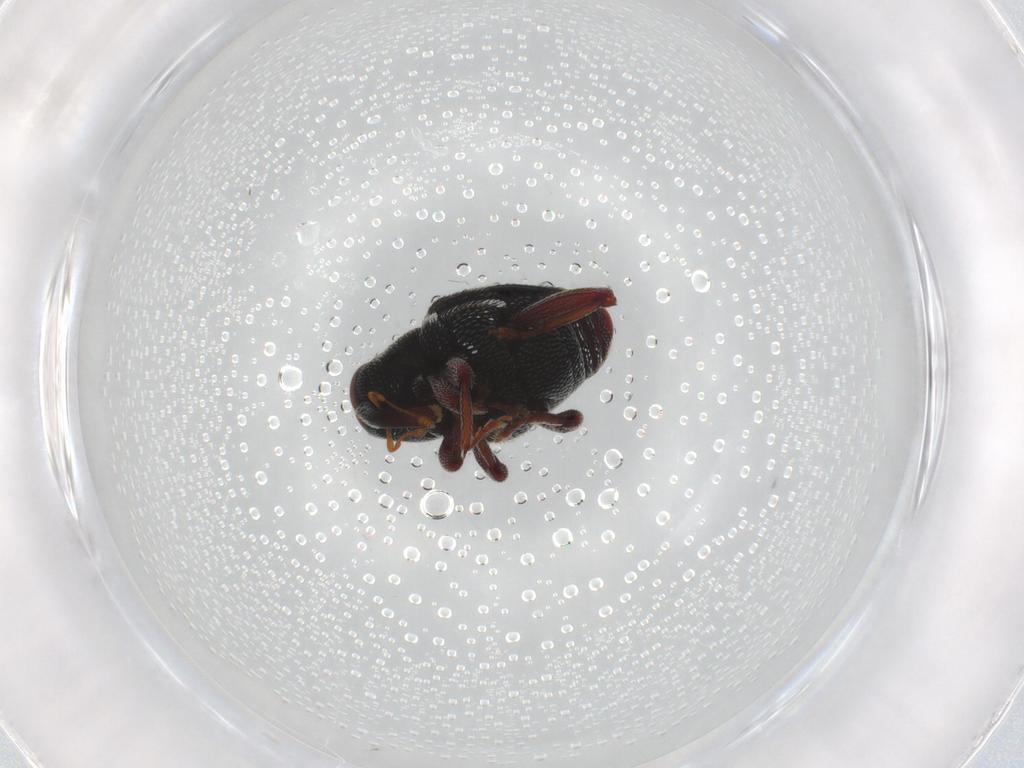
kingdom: Animalia
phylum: Arthropoda
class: Insecta
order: Coleoptera
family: Curculionidae
